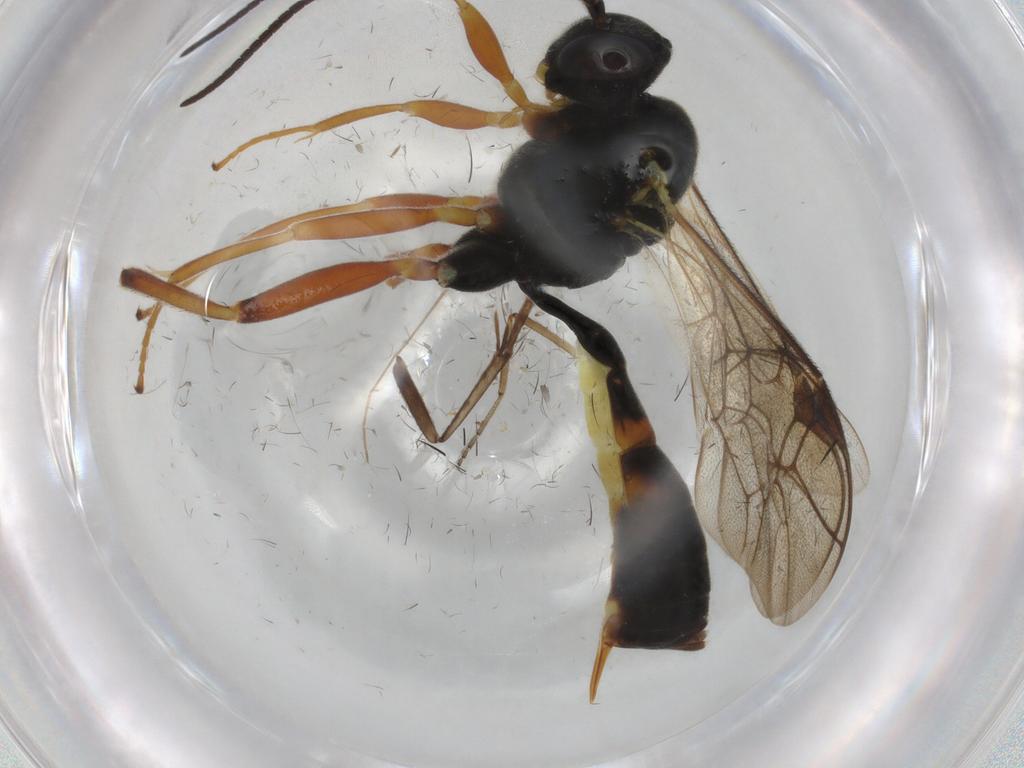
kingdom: Animalia
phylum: Arthropoda
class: Insecta
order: Hymenoptera
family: Ichneumonidae
